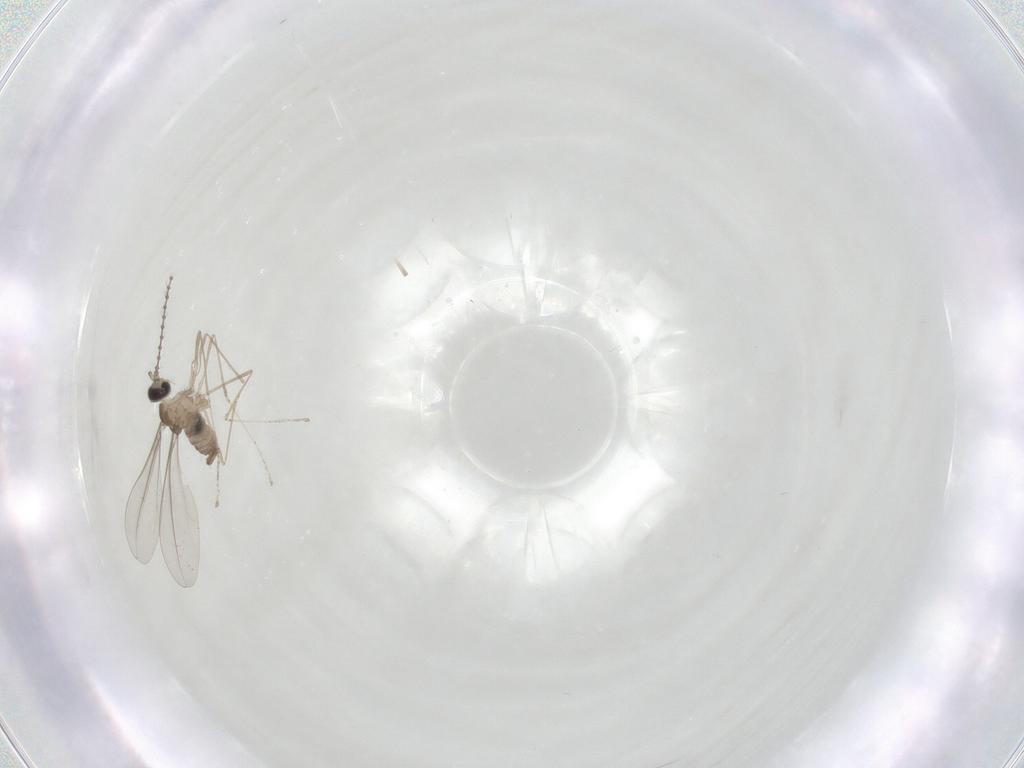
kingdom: Animalia
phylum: Arthropoda
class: Insecta
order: Diptera
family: Cecidomyiidae
